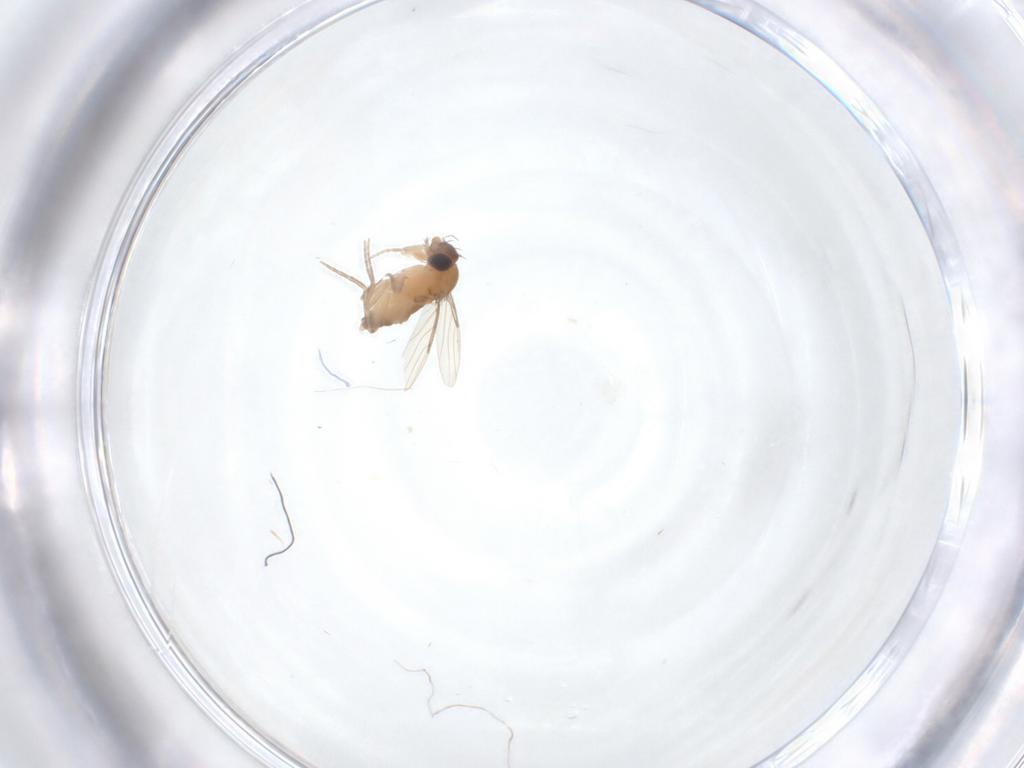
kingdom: Animalia
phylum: Arthropoda
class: Insecta
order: Diptera
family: Phoridae
